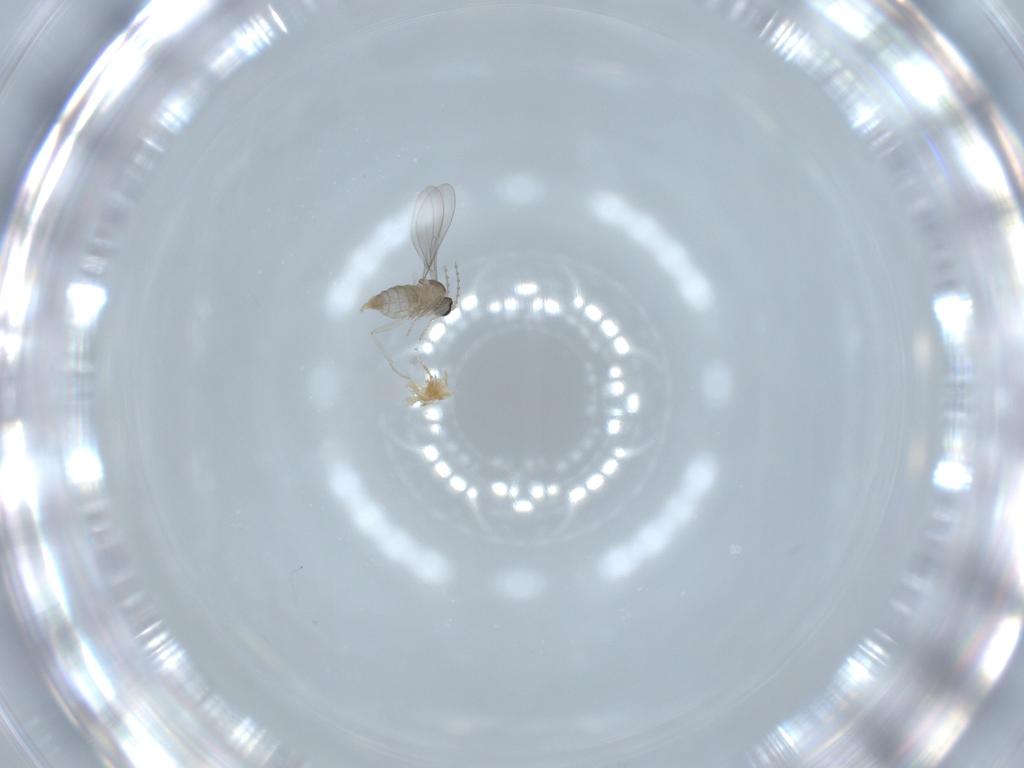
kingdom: Animalia
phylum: Arthropoda
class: Insecta
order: Diptera
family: Cecidomyiidae
